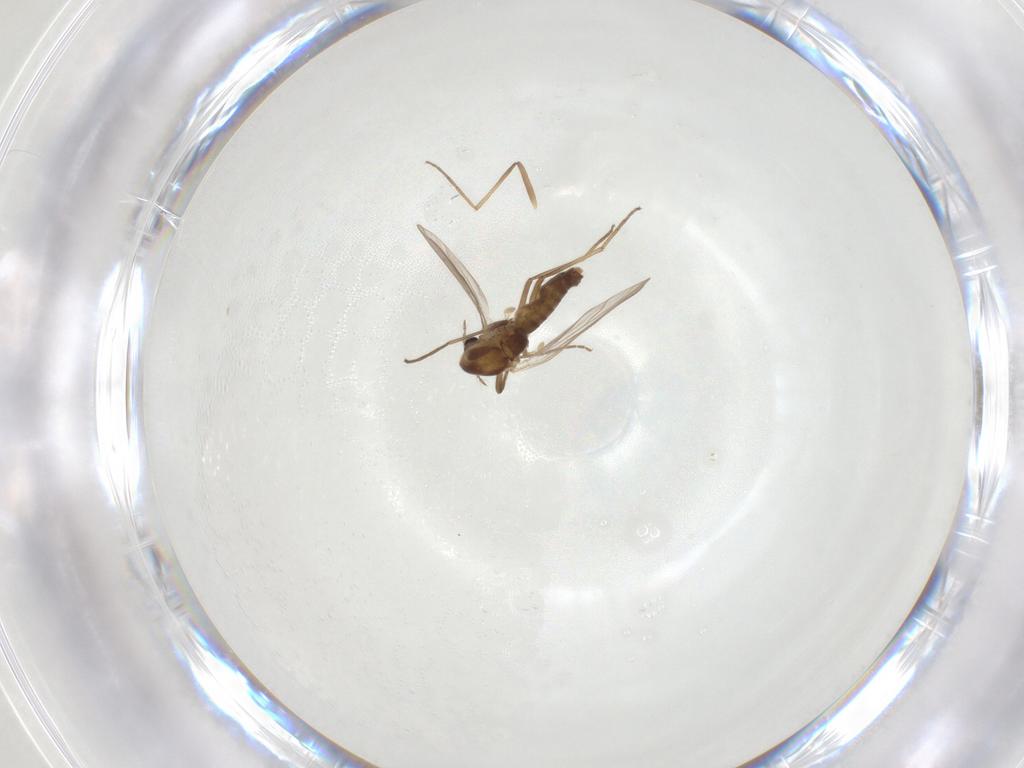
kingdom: Animalia
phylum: Arthropoda
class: Insecta
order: Diptera
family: Chironomidae
